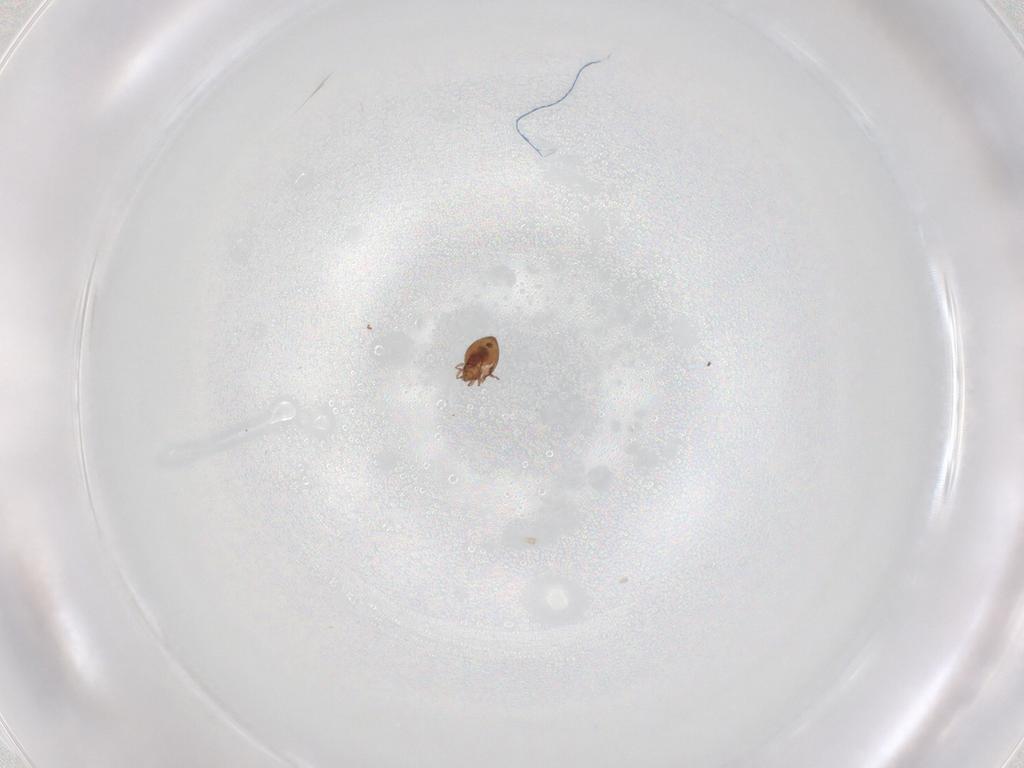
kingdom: Animalia
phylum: Arthropoda
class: Arachnida
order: Sarcoptiformes
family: Oribatulidae
